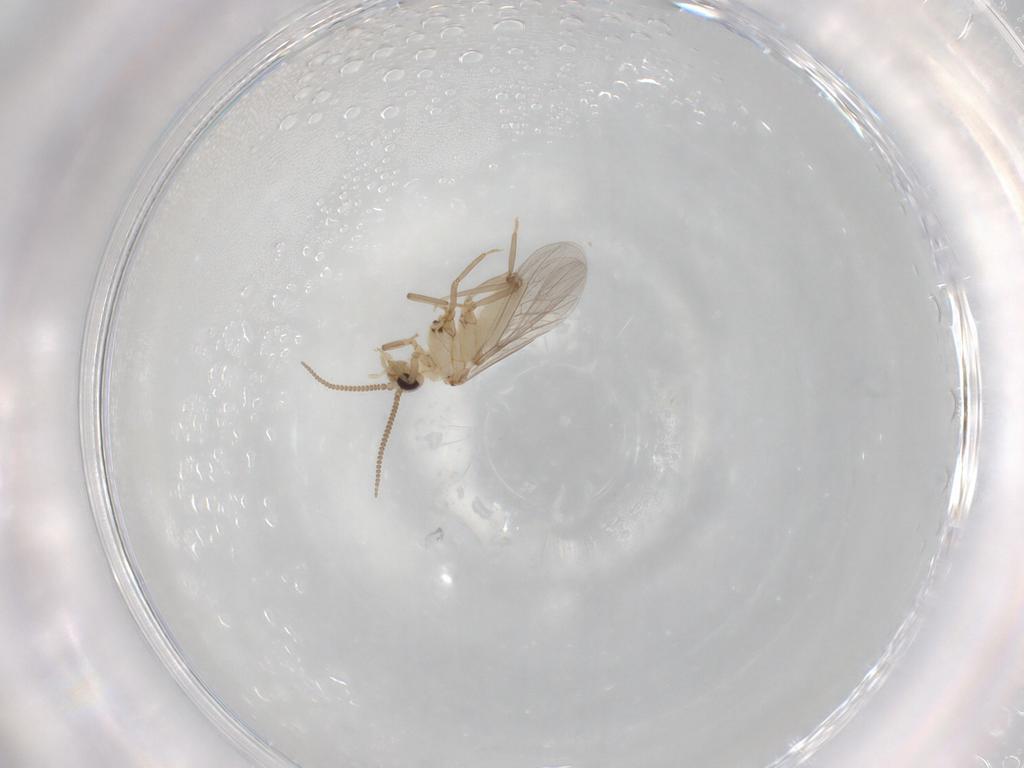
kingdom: Animalia
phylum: Arthropoda
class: Insecta
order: Neuroptera
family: Coniopterygidae
